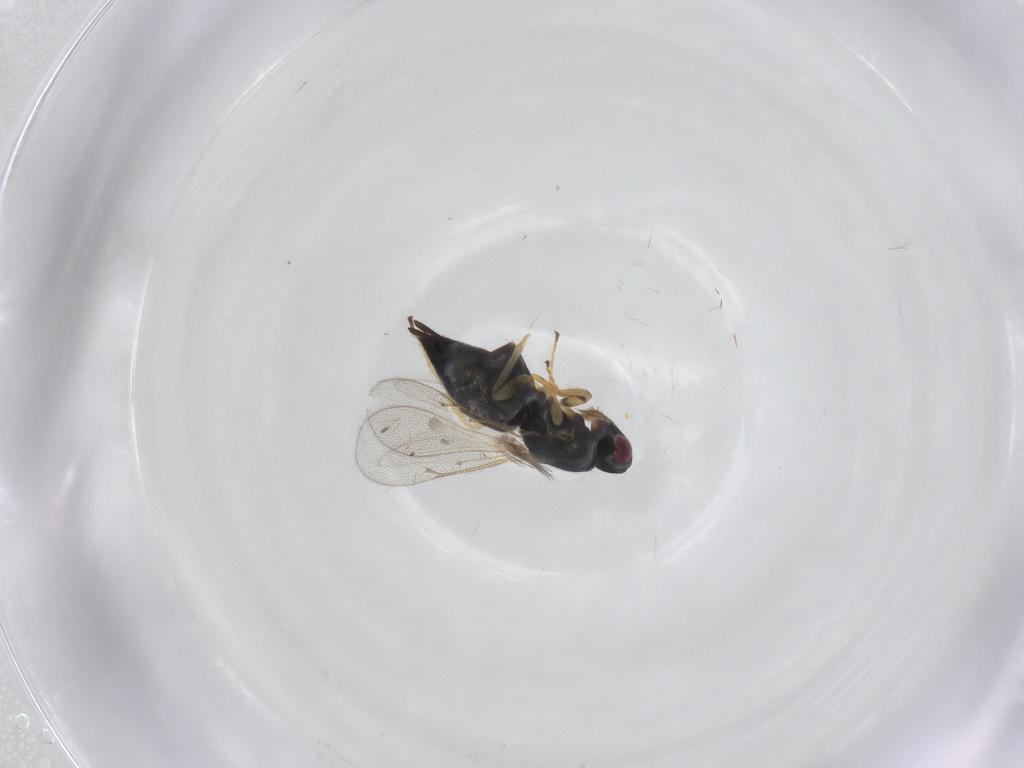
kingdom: Animalia
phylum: Arthropoda
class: Insecta
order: Hymenoptera
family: Eulophidae
